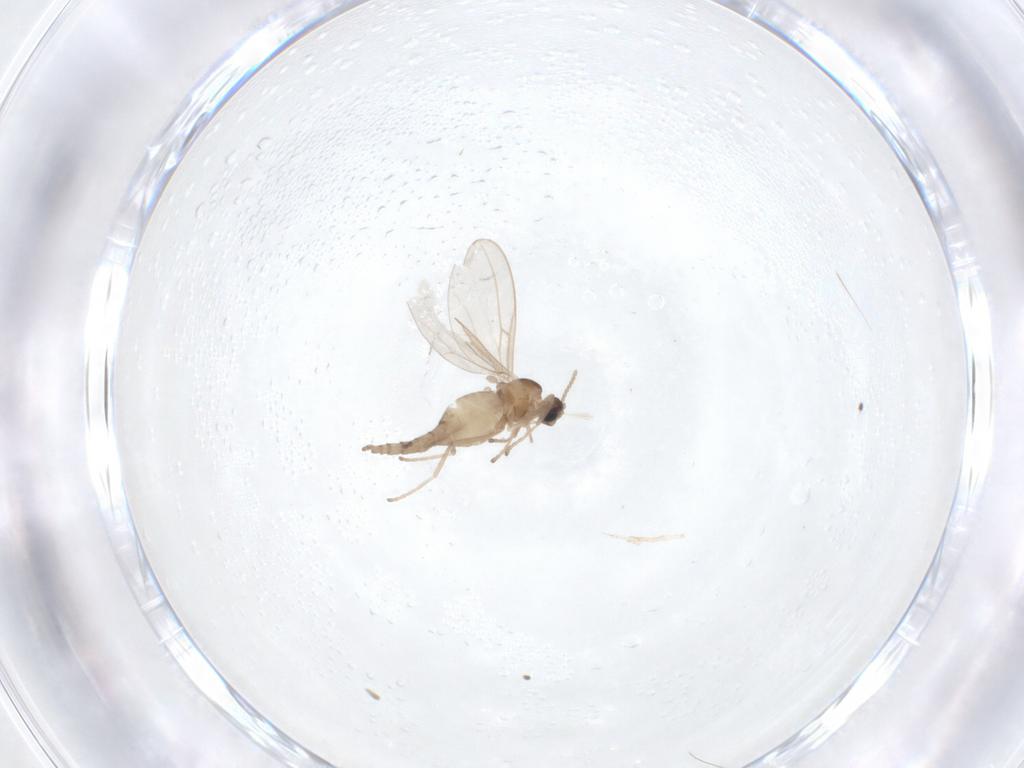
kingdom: Animalia
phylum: Arthropoda
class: Insecta
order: Diptera
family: Cecidomyiidae
